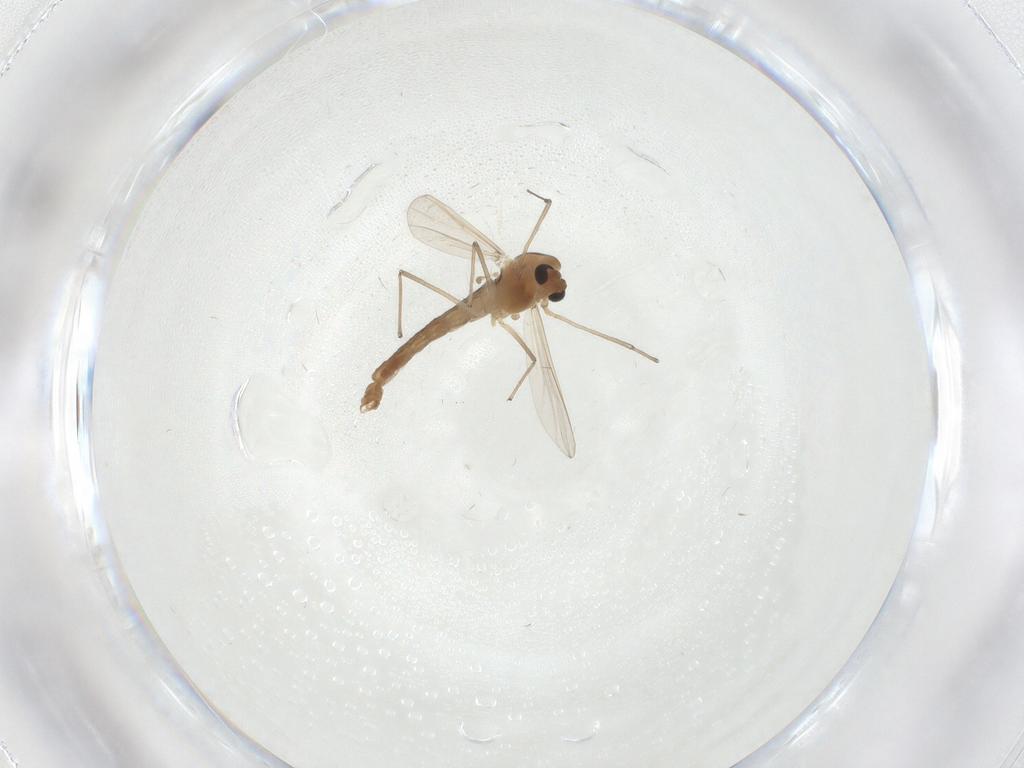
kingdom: Animalia
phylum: Arthropoda
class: Insecta
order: Diptera
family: Chironomidae
